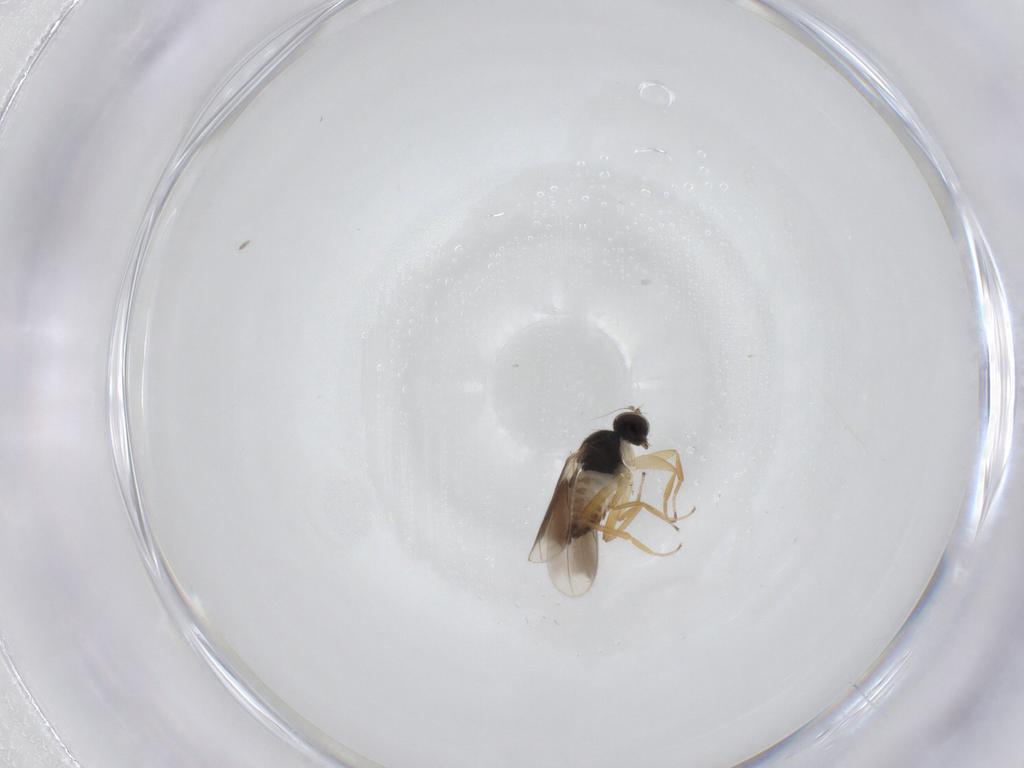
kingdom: Animalia
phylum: Arthropoda
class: Insecta
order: Diptera
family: Hybotidae
